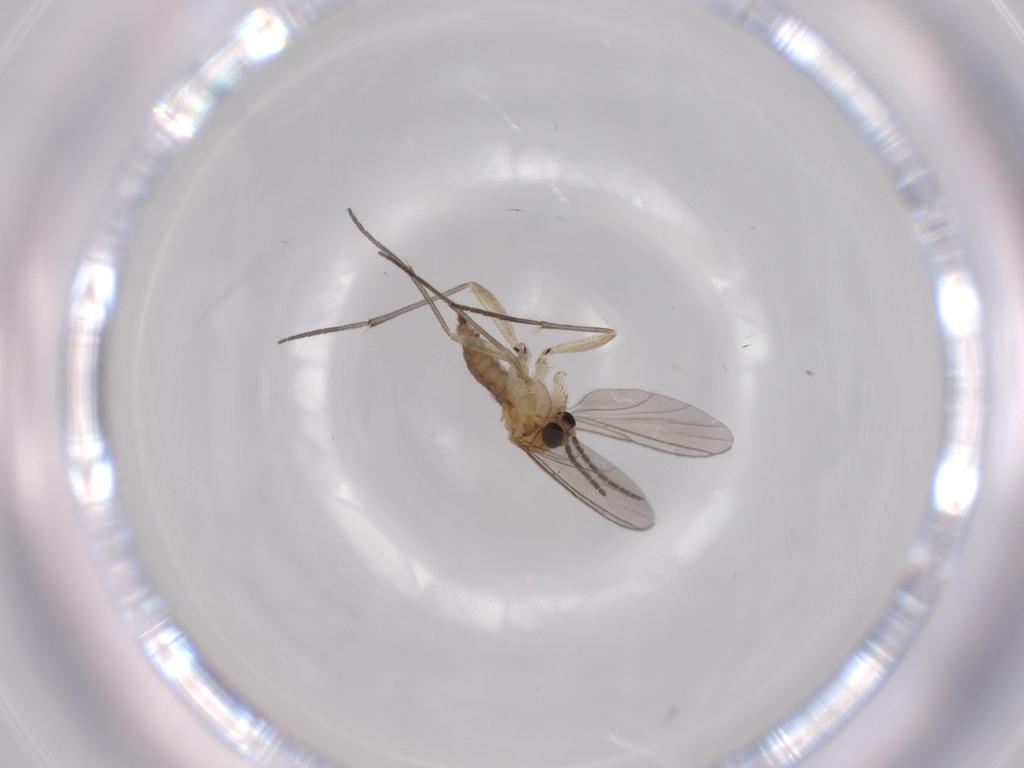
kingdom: Animalia
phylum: Arthropoda
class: Insecta
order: Diptera
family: Sciaridae
